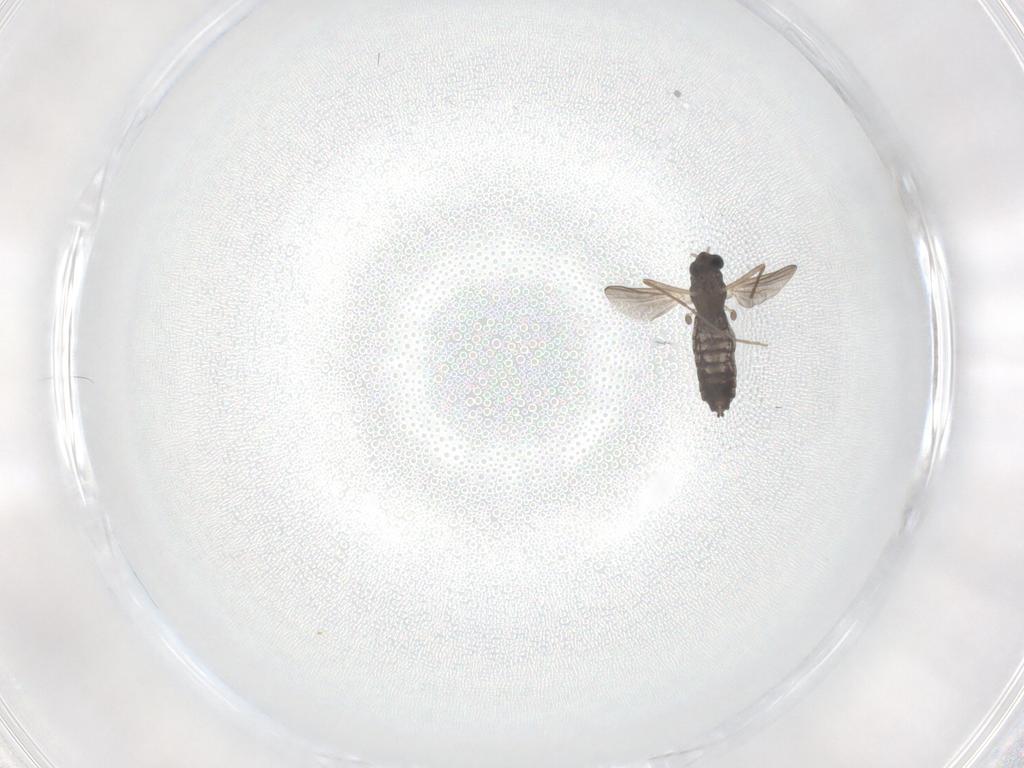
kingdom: Animalia
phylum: Arthropoda
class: Insecta
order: Diptera
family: Chironomidae
